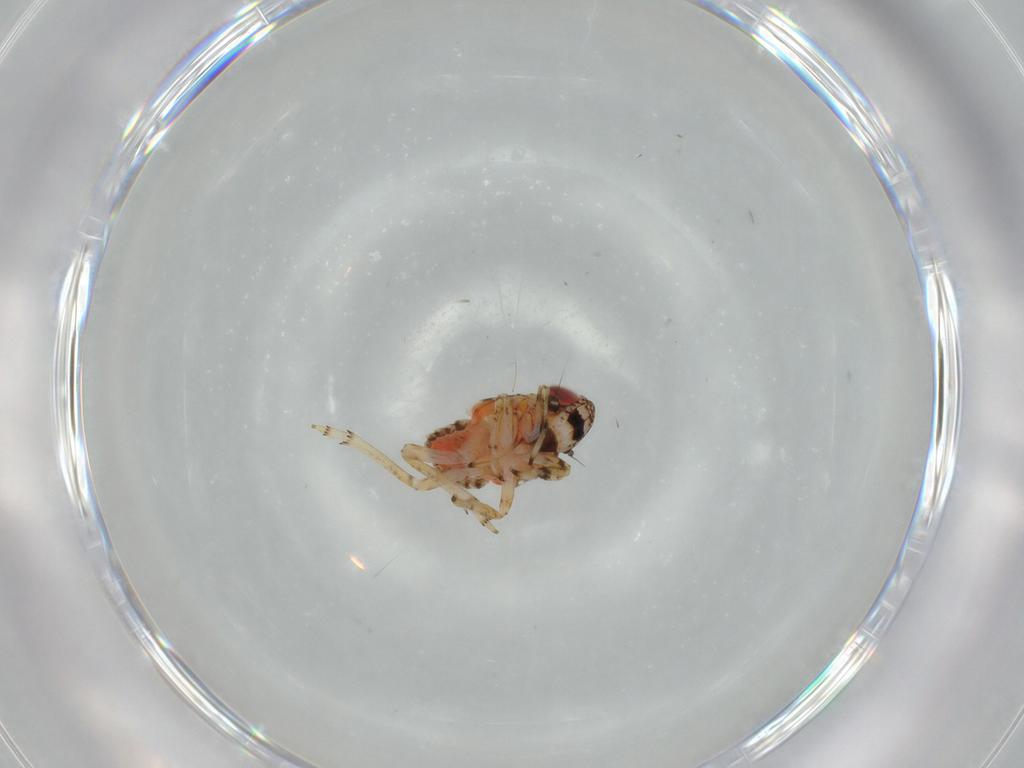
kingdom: Animalia
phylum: Arthropoda
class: Insecta
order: Hemiptera
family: Issidae
